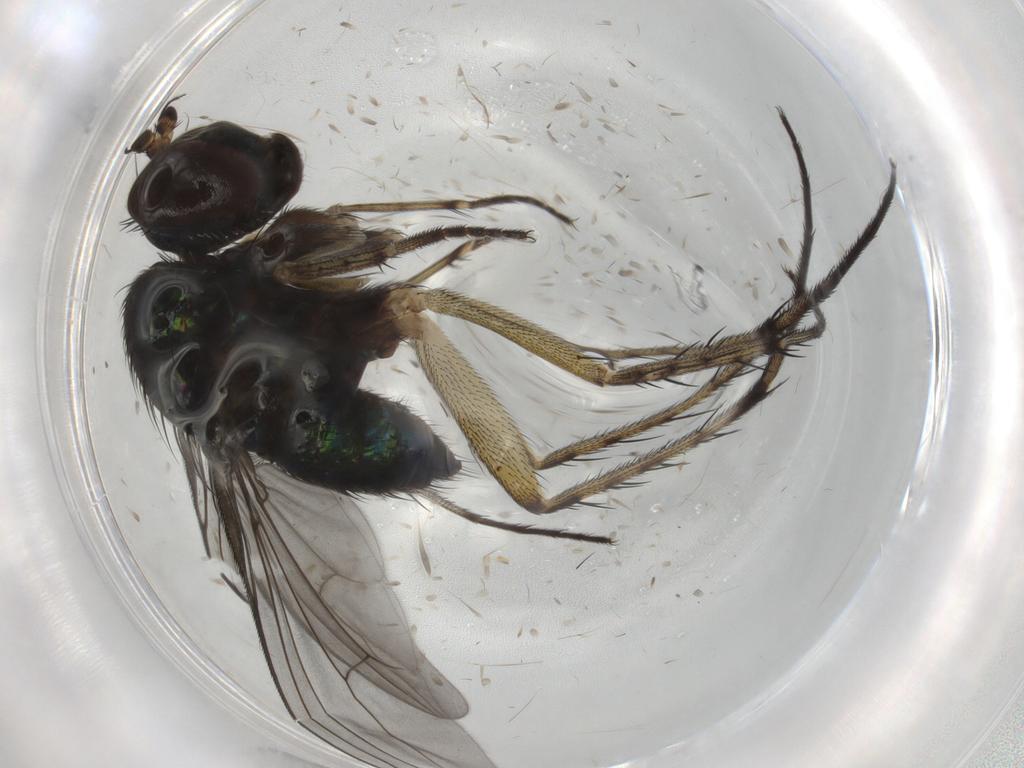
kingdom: Animalia
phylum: Arthropoda
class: Insecta
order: Diptera
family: Dolichopodidae
